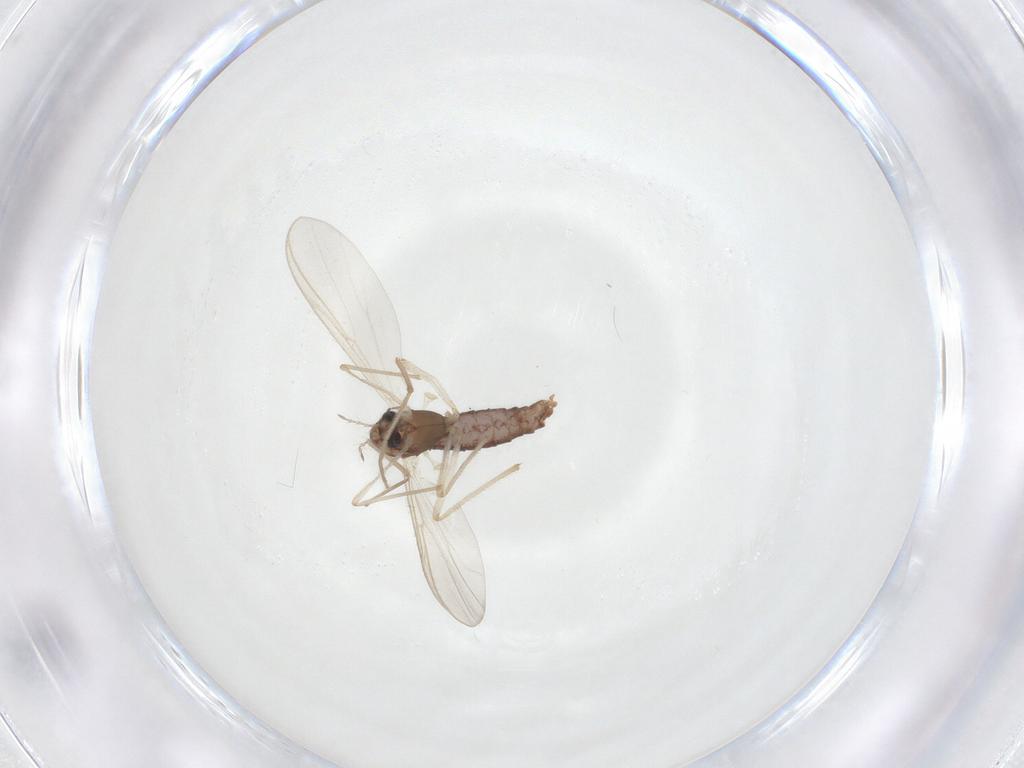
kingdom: Animalia
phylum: Arthropoda
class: Insecta
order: Diptera
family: Chironomidae
